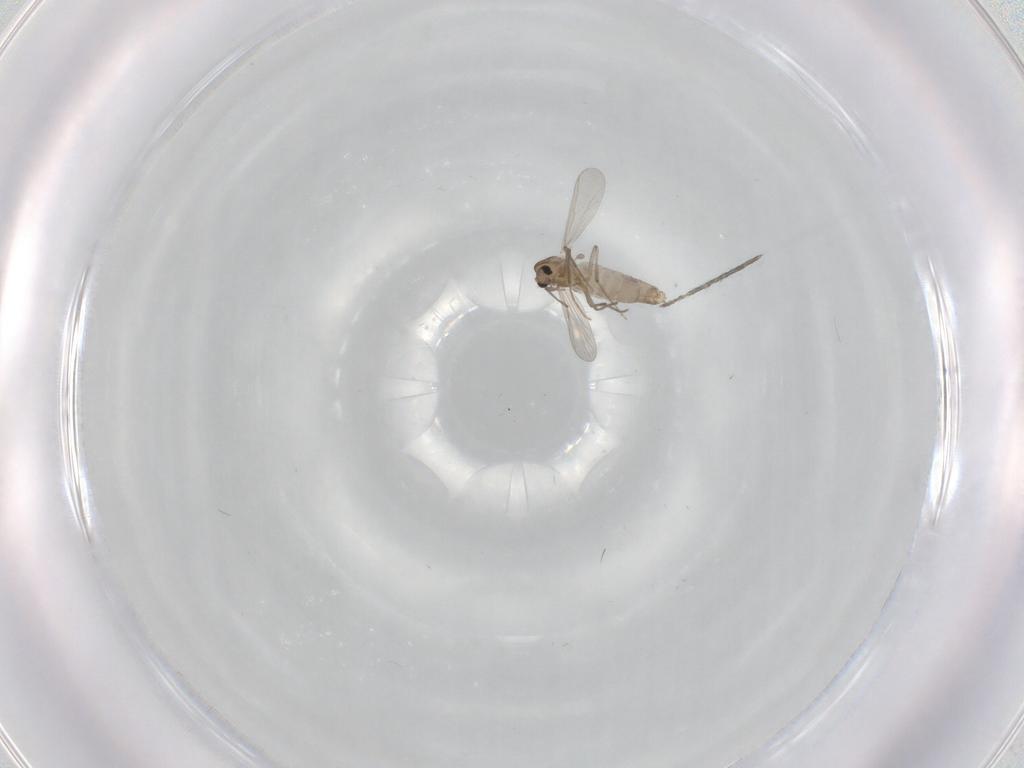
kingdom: Animalia
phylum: Arthropoda
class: Insecta
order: Diptera
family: Chironomidae
